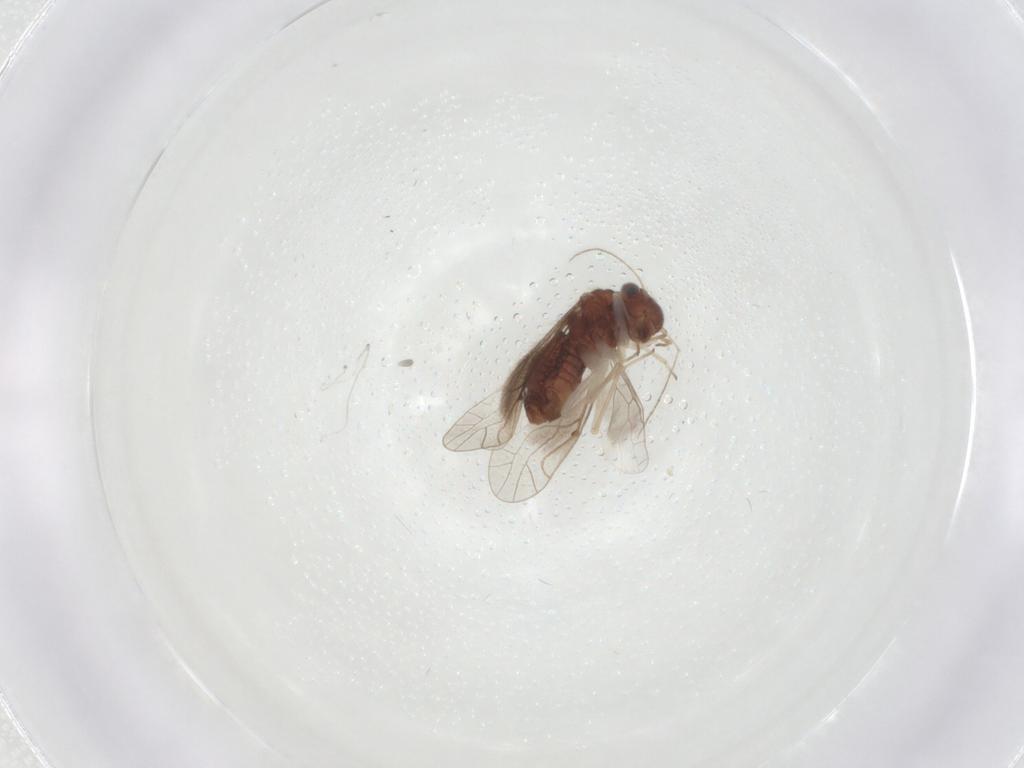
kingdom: Animalia
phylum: Arthropoda
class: Insecta
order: Psocodea
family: Caeciliusidae
